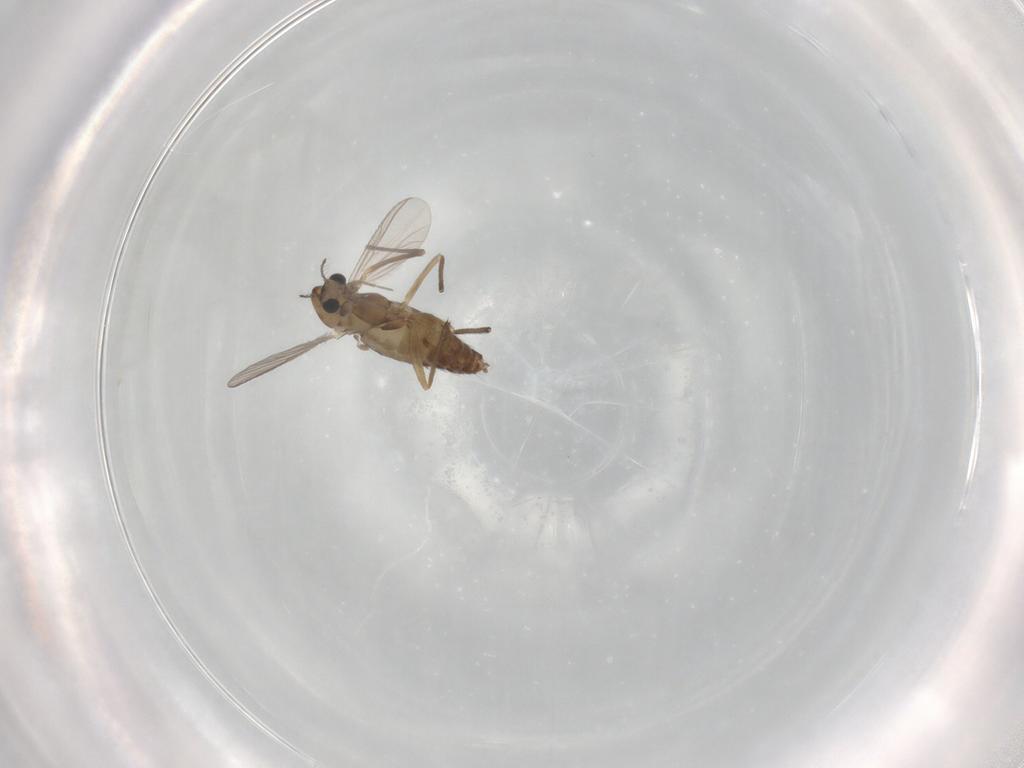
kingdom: Animalia
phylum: Arthropoda
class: Insecta
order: Diptera
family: Chironomidae
